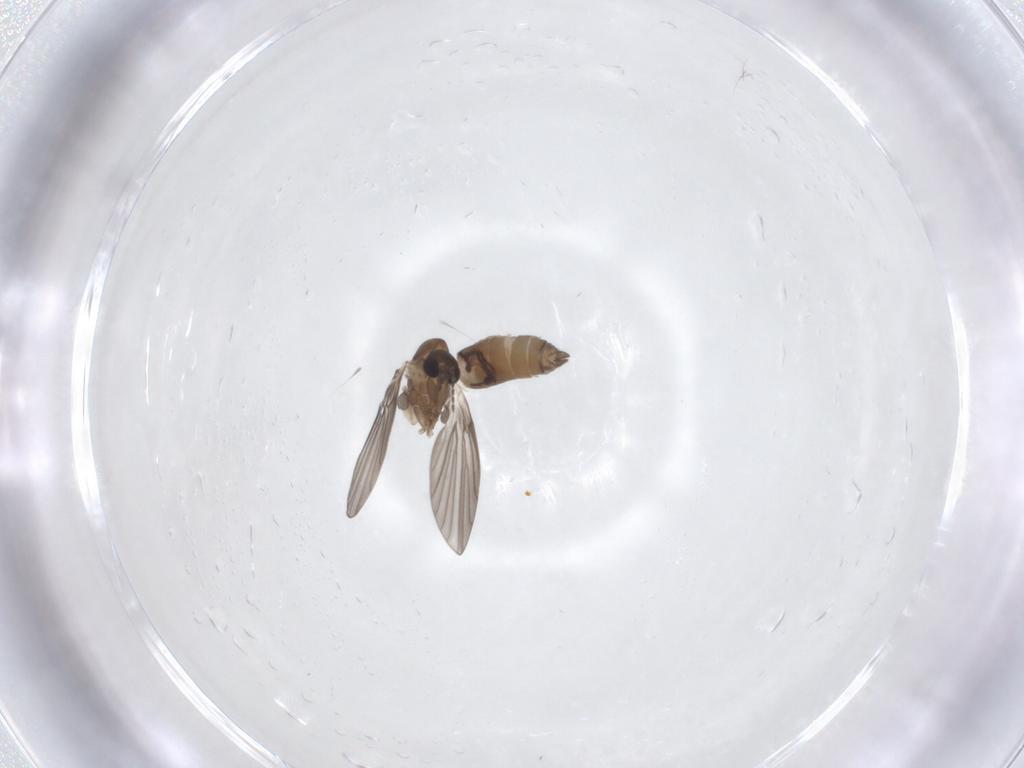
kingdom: Animalia
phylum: Arthropoda
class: Insecta
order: Diptera
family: Psychodidae
